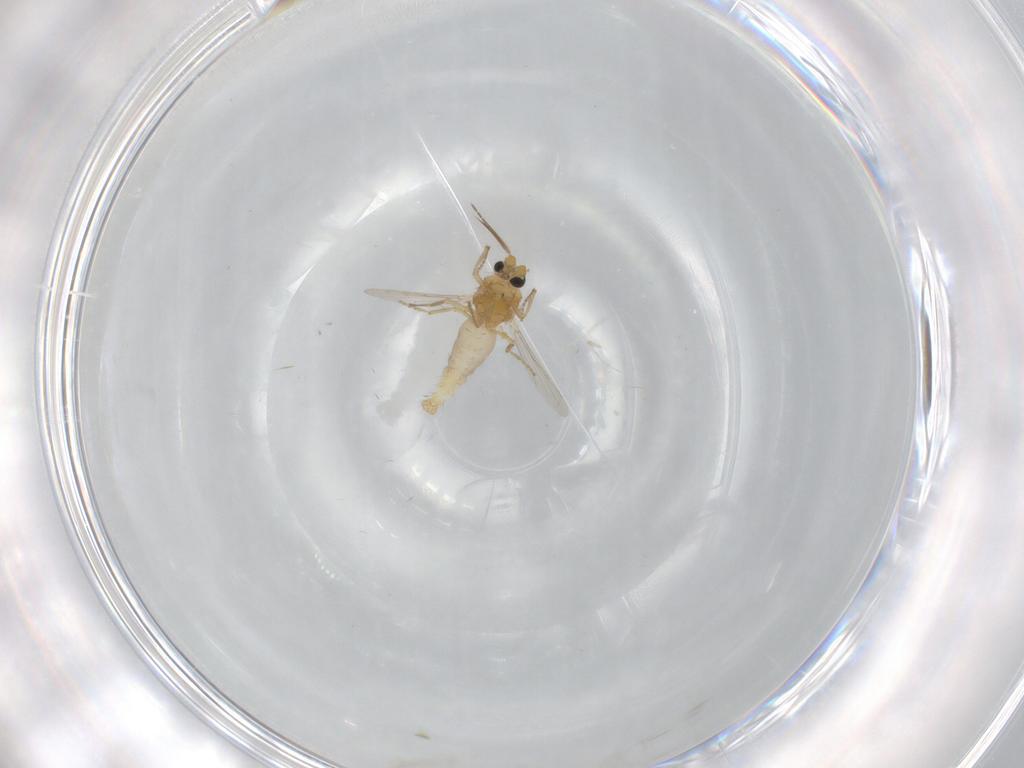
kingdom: Animalia
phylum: Arthropoda
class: Insecta
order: Diptera
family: Ceratopogonidae
